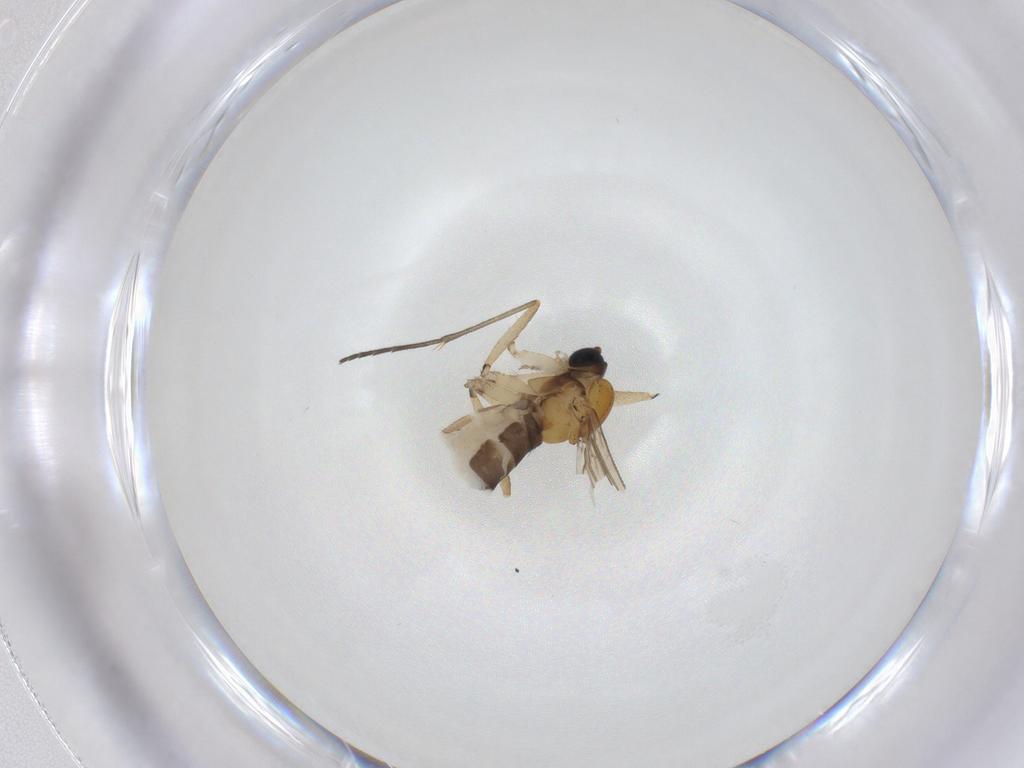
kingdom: Animalia
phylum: Arthropoda
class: Insecta
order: Diptera
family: Sciaridae
